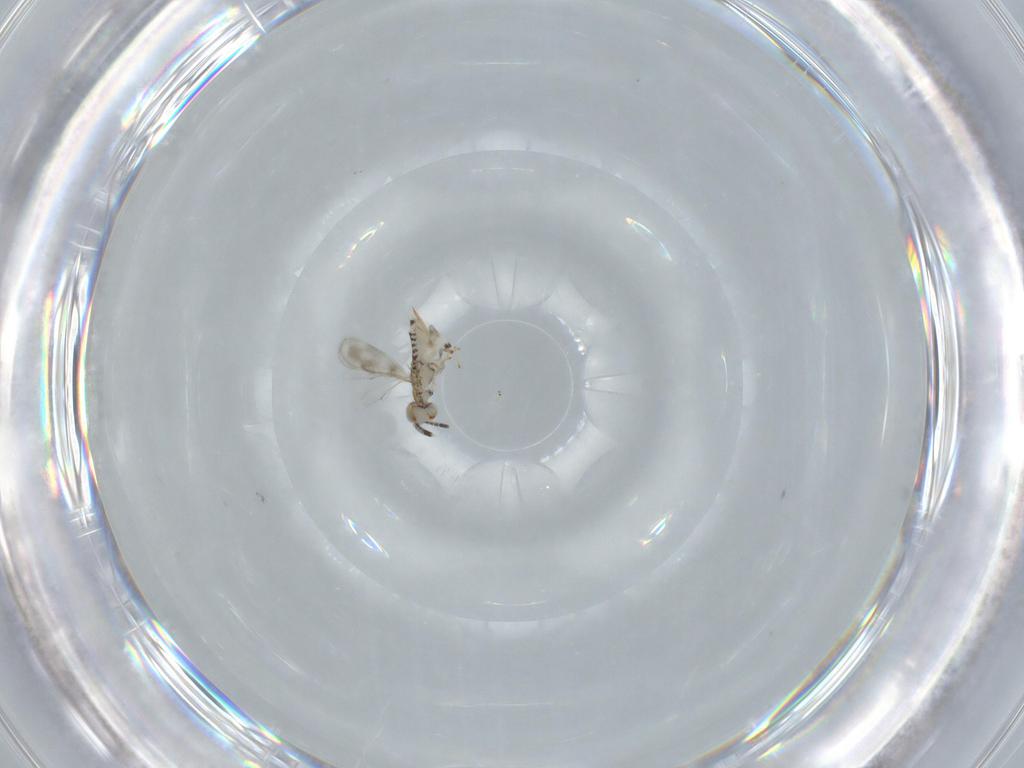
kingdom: Animalia
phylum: Arthropoda
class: Insecta
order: Hymenoptera
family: Aphelinidae
